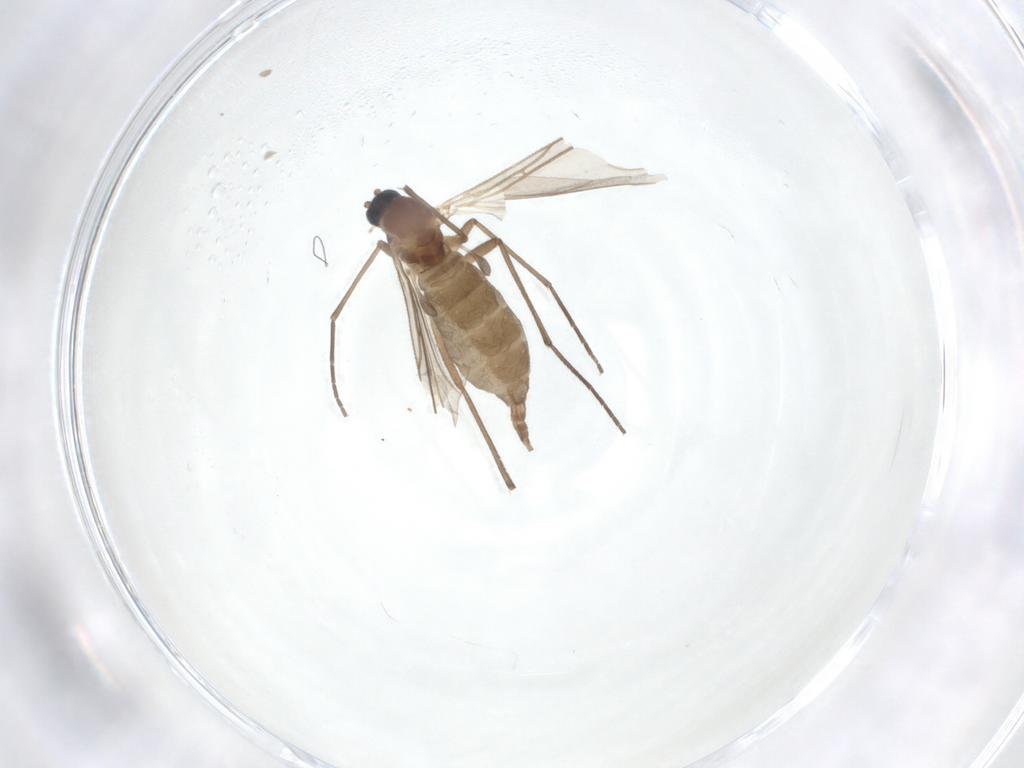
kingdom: Animalia
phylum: Arthropoda
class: Insecta
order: Diptera
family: Sciaridae
